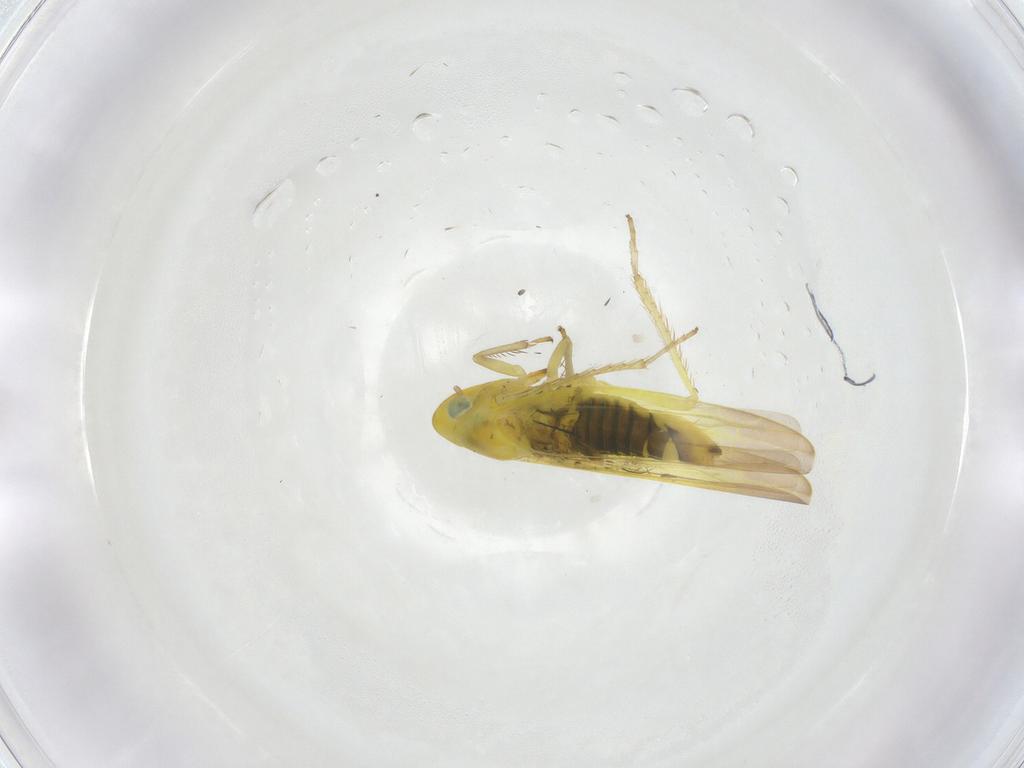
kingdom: Animalia
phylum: Arthropoda
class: Insecta
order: Hemiptera
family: Cicadellidae
